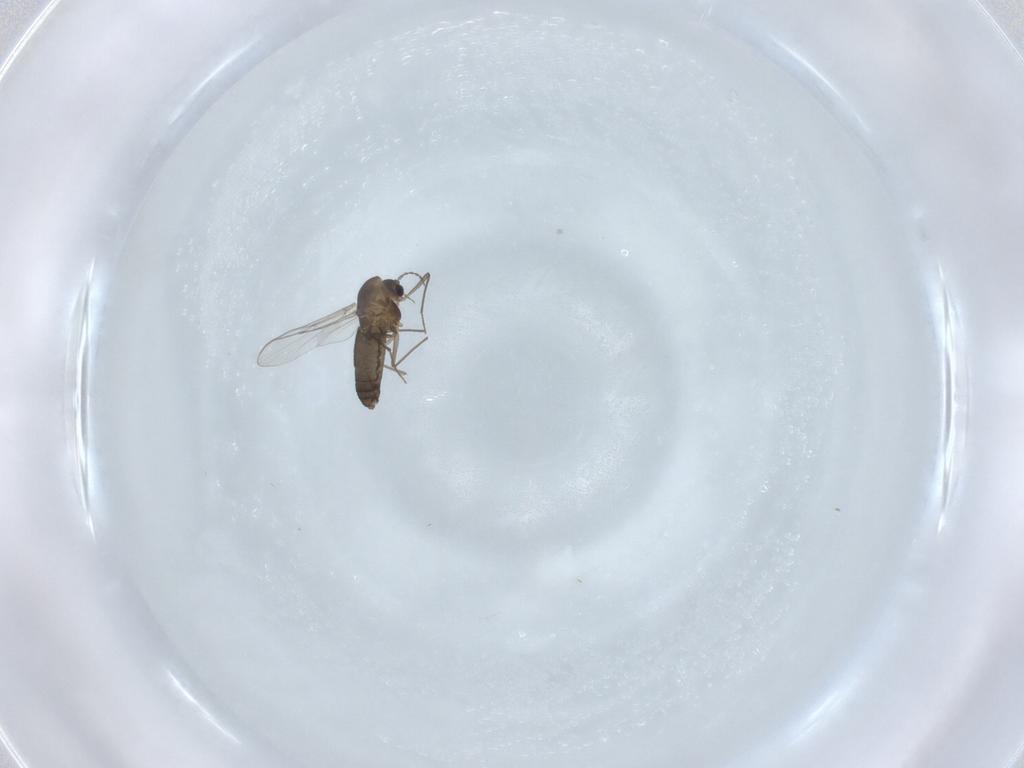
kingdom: Animalia
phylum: Arthropoda
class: Insecta
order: Diptera
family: Chironomidae
